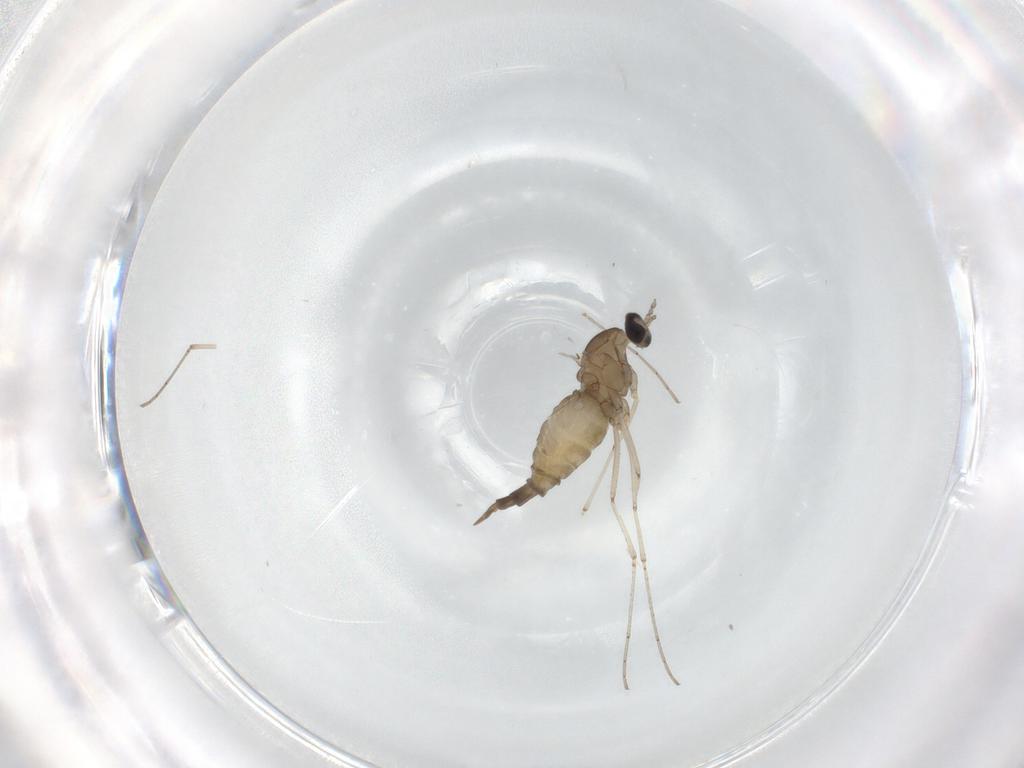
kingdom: Animalia
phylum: Arthropoda
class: Insecta
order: Diptera
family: Cecidomyiidae
